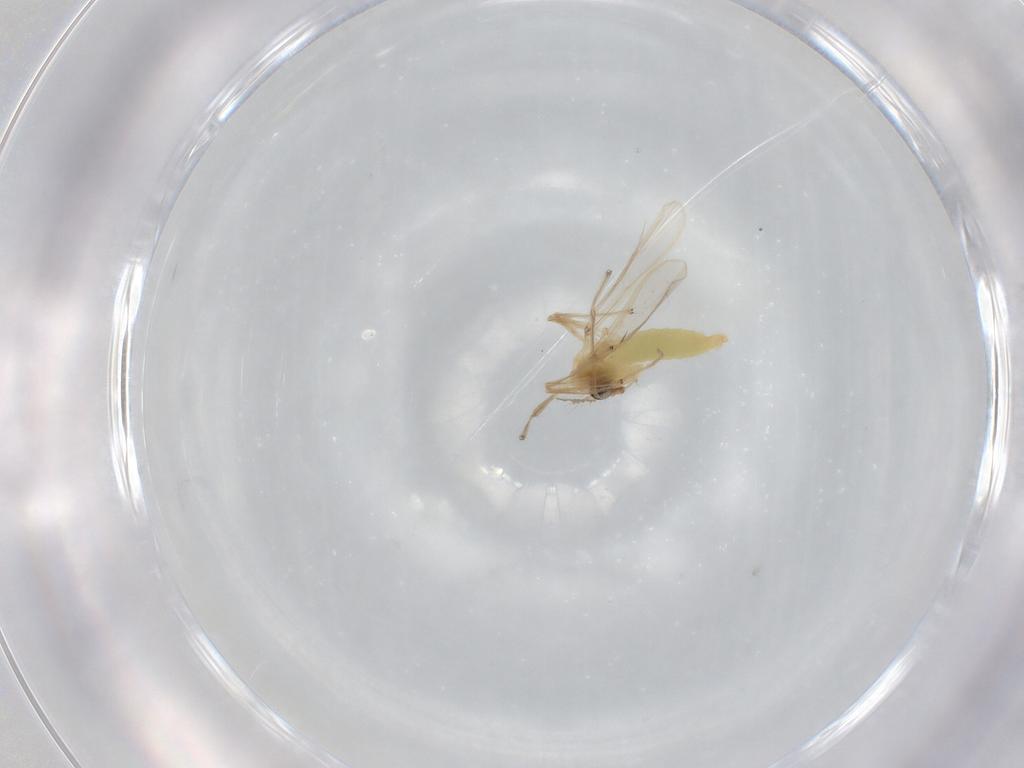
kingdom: Animalia
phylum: Arthropoda
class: Insecta
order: Diptera
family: Chironomidae
